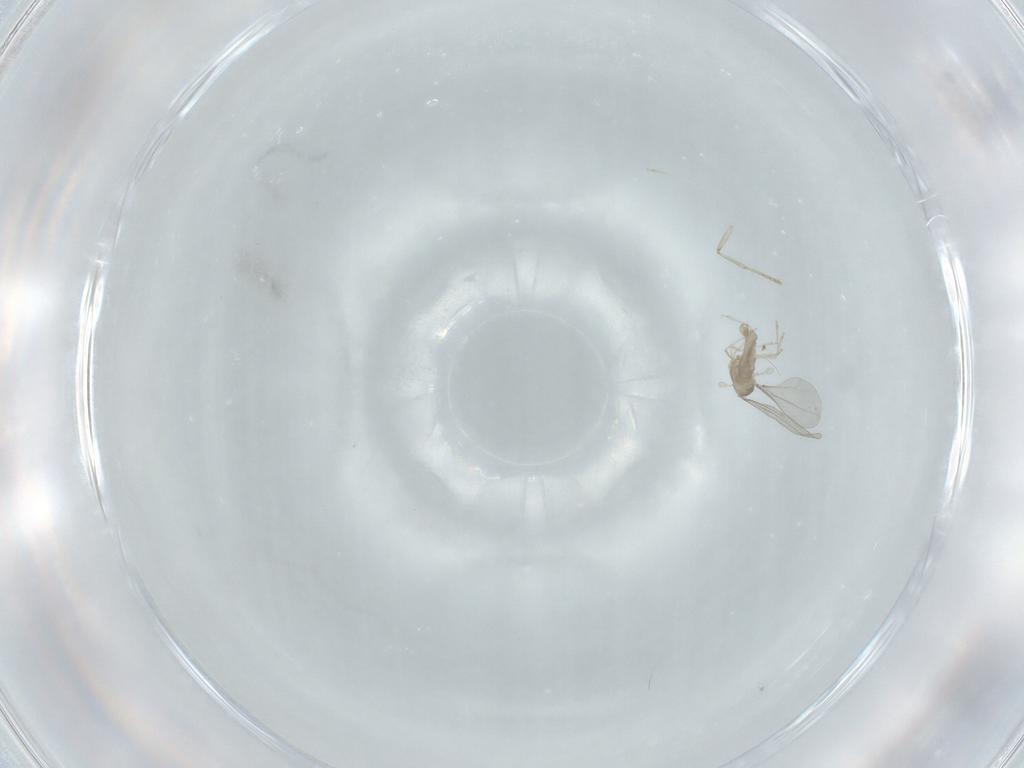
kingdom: Animalia
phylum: Arthropoda
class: Insecta
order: Diptera
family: Cecidomyiidae
